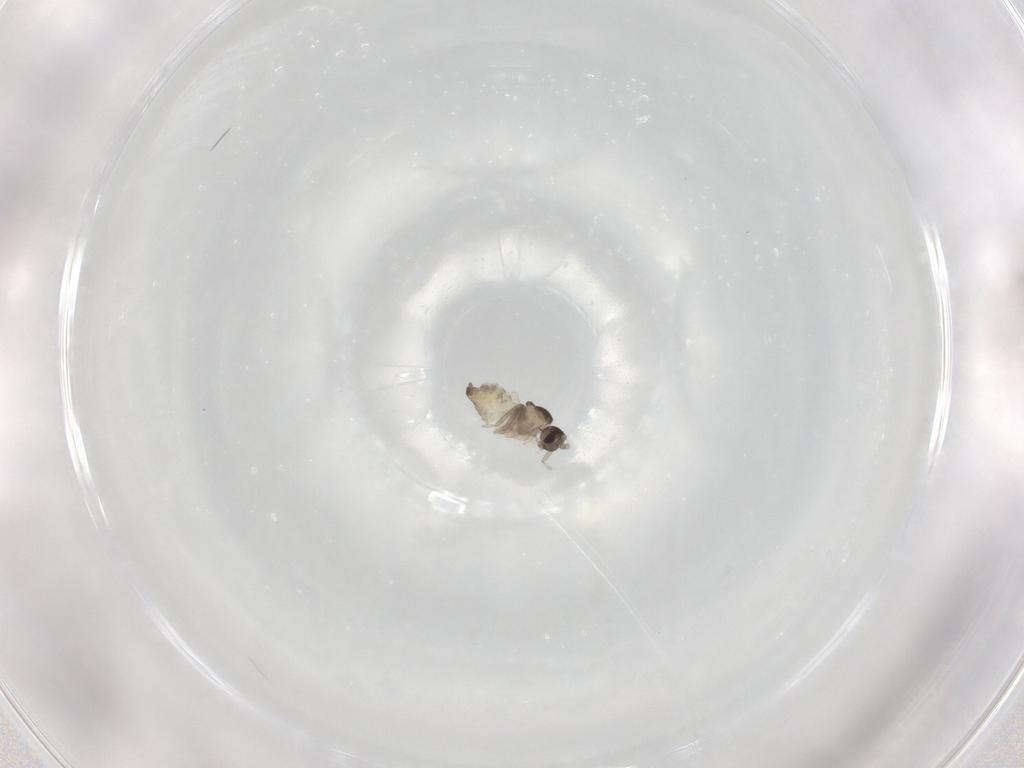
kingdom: Animalia
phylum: Arthropoda
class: Insecta
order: Diptera
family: Cecidomyiidae
